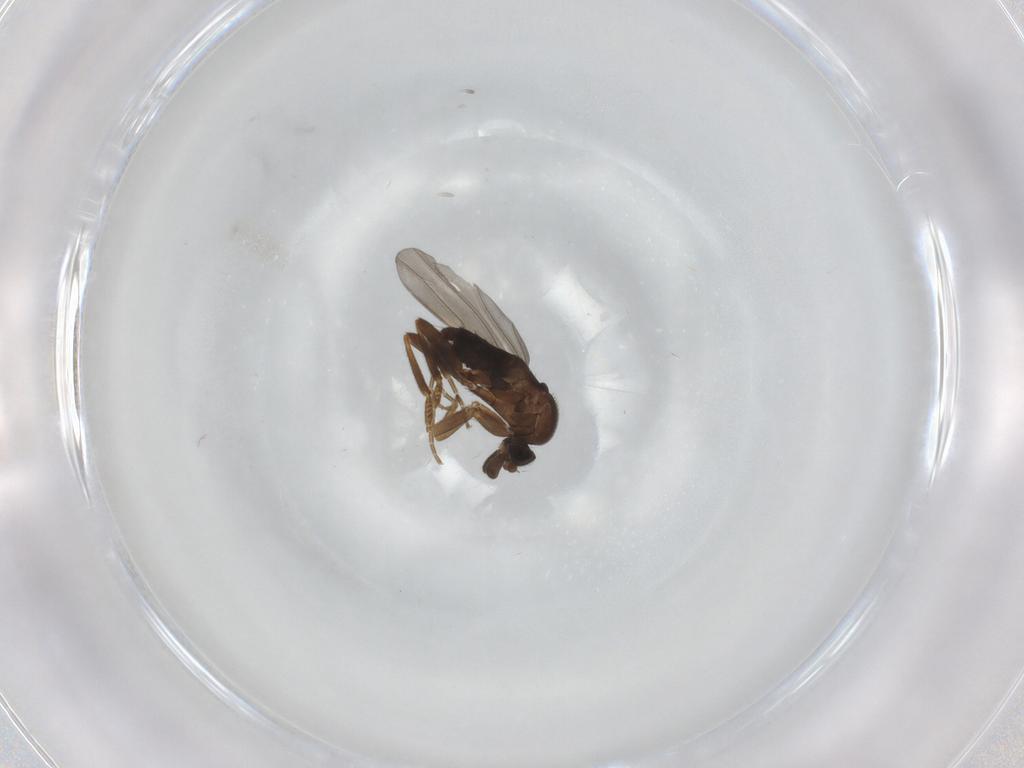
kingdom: Animalia
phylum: Arthropoda
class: Insecta
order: Diptera
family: Phoridae
